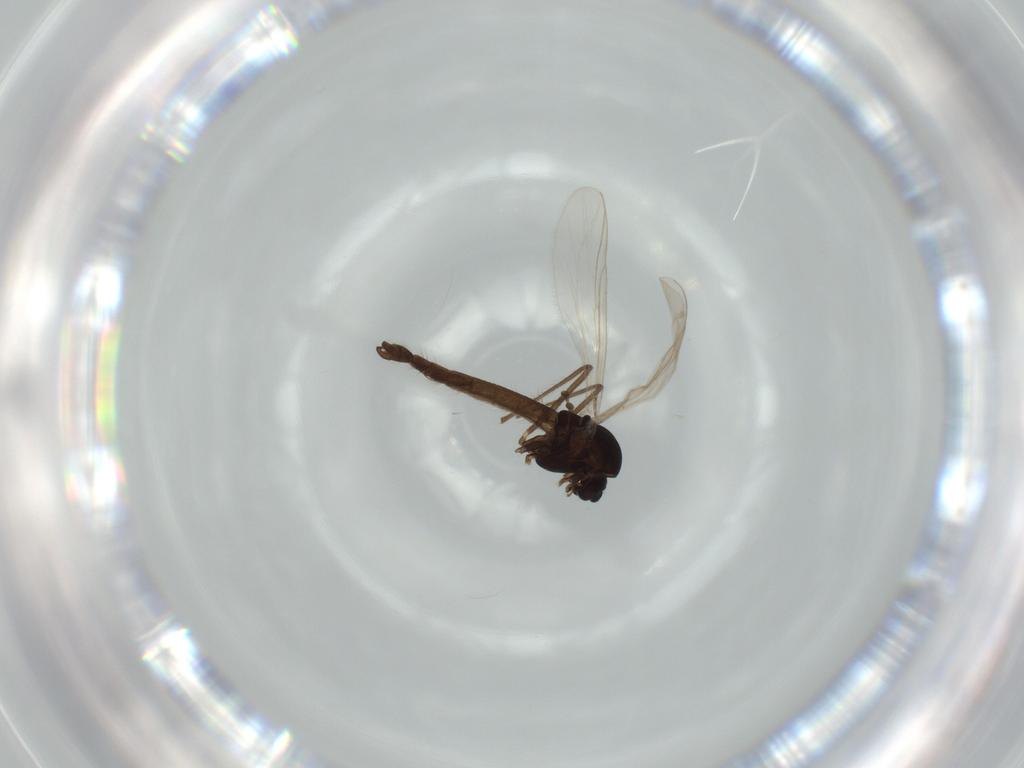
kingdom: Animalia
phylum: Arthropoda
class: Insecta
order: Diptera
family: Chironomidae
